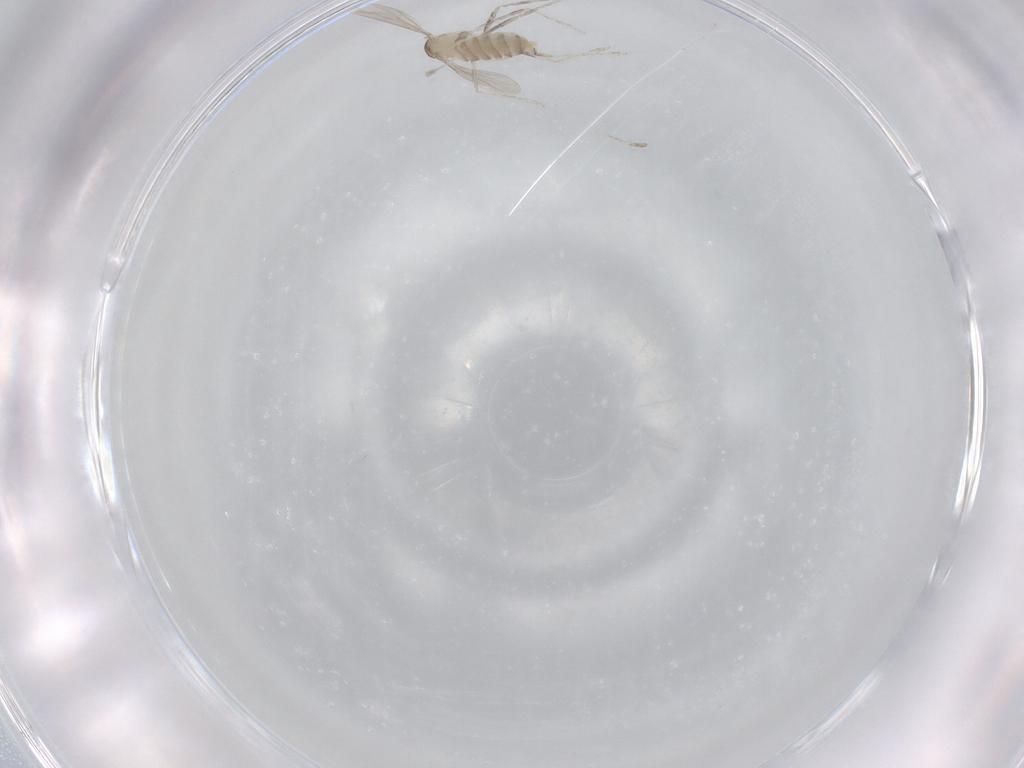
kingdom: Animalia
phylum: Arthropoda
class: Insecta
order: Diptera
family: Cecidomyiidae
